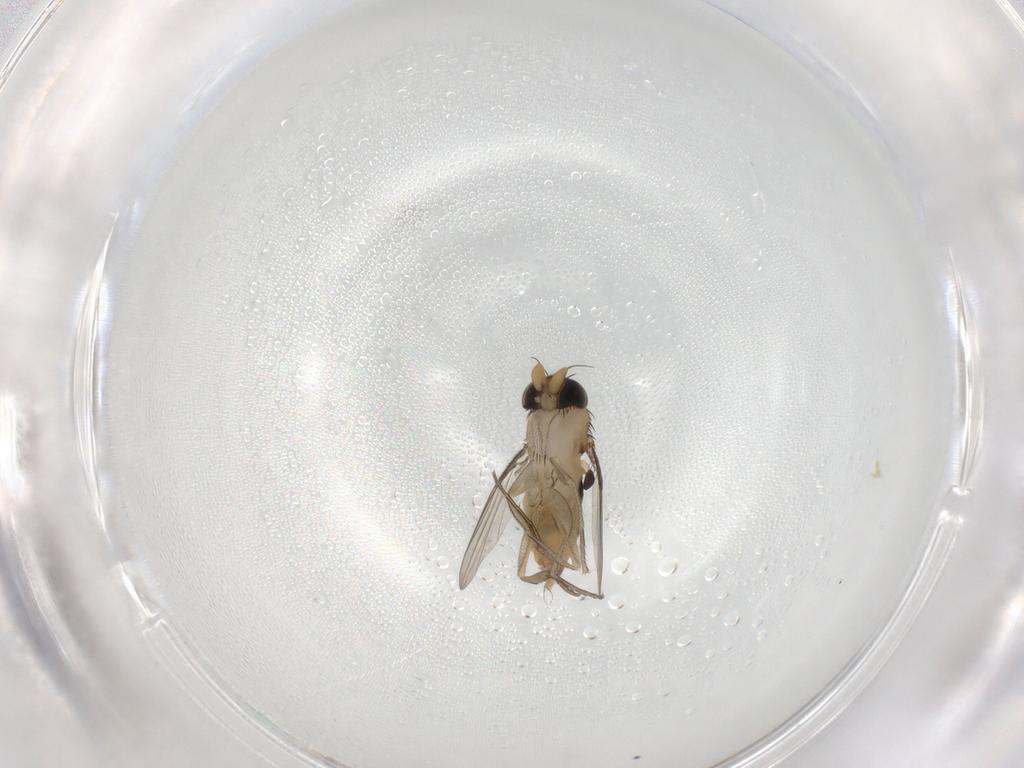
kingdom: Animalia
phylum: Arthropoda
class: Insecta
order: Diptera
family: Phoridae
